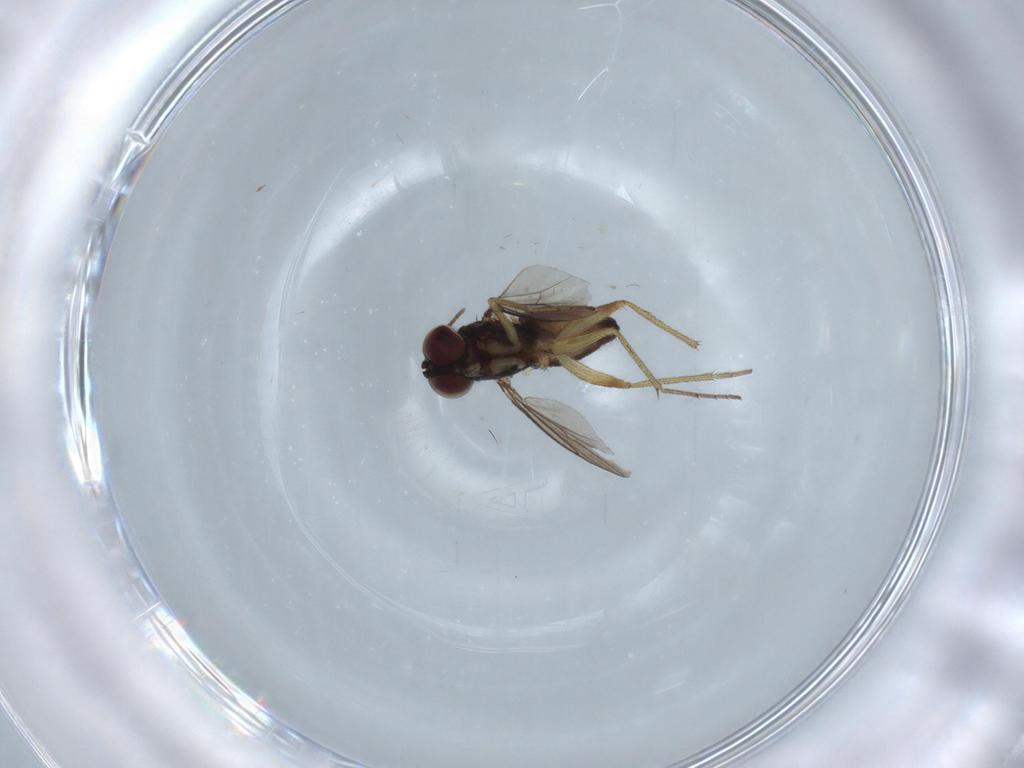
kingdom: Animalia
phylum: Arthropoda
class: Insecta
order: Diptera
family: Dolichopodidae
